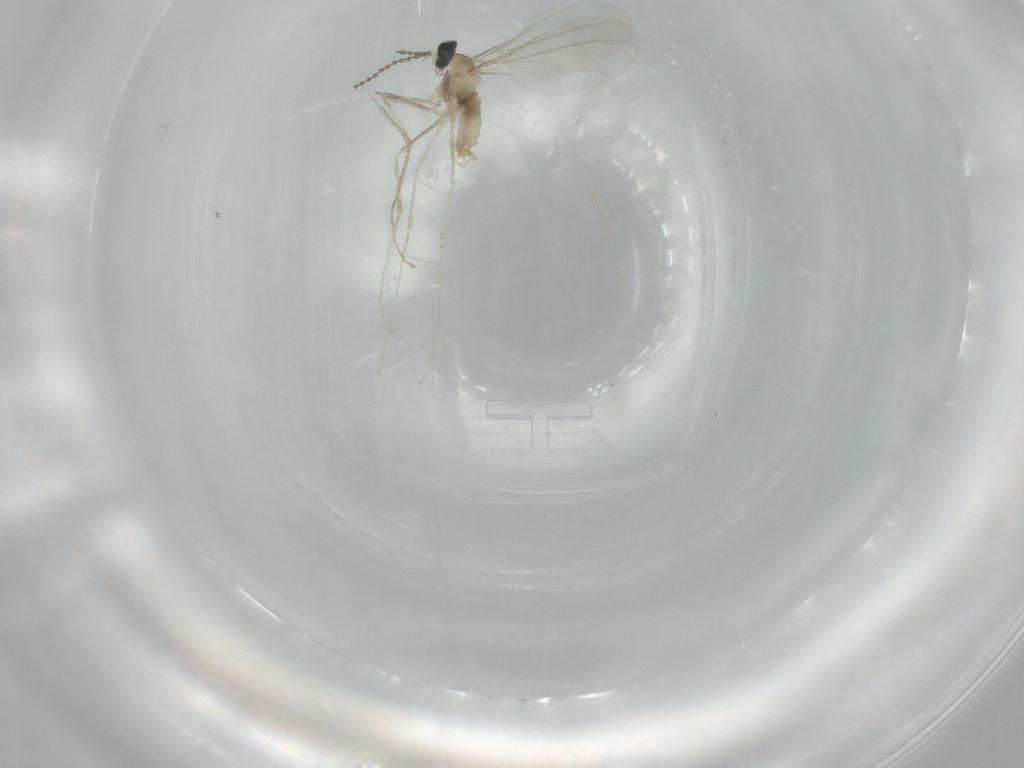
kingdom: Animalia
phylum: Arthropoda
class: Insecta
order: Diptera
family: Cecidomyiidae
